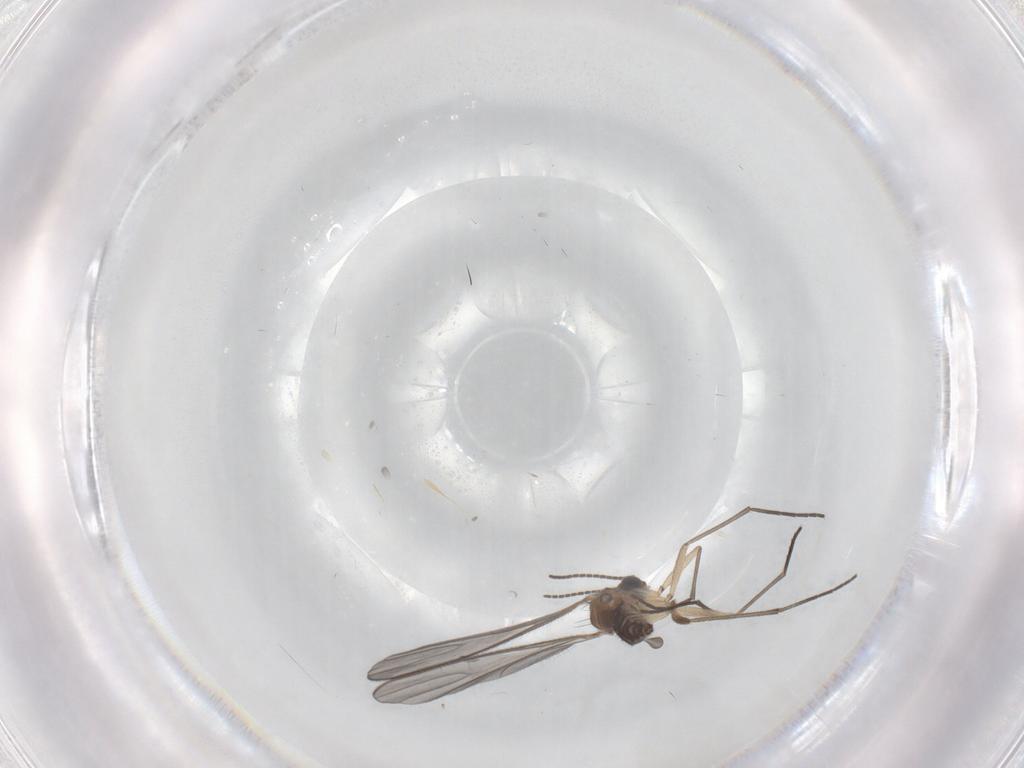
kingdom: Animalia
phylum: Arthropoda
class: Insecta
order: Diptera
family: Sciaridae
